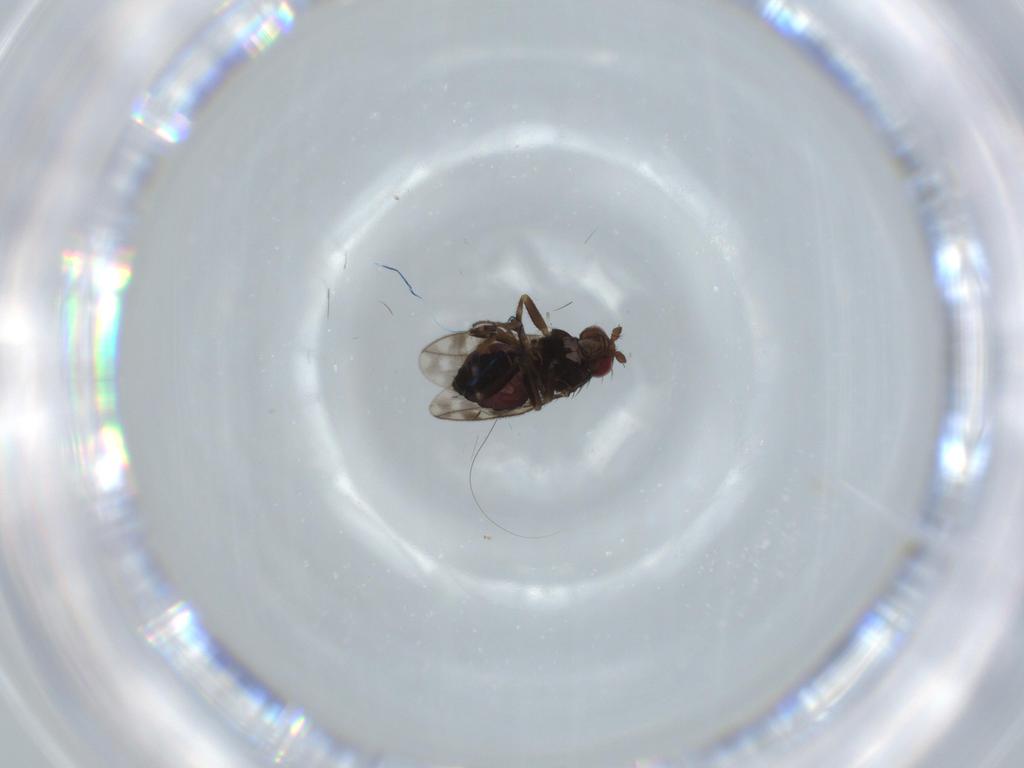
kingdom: Animalia
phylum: Arthropoda
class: Insecta
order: Diptera
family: Sphaeroceridae
